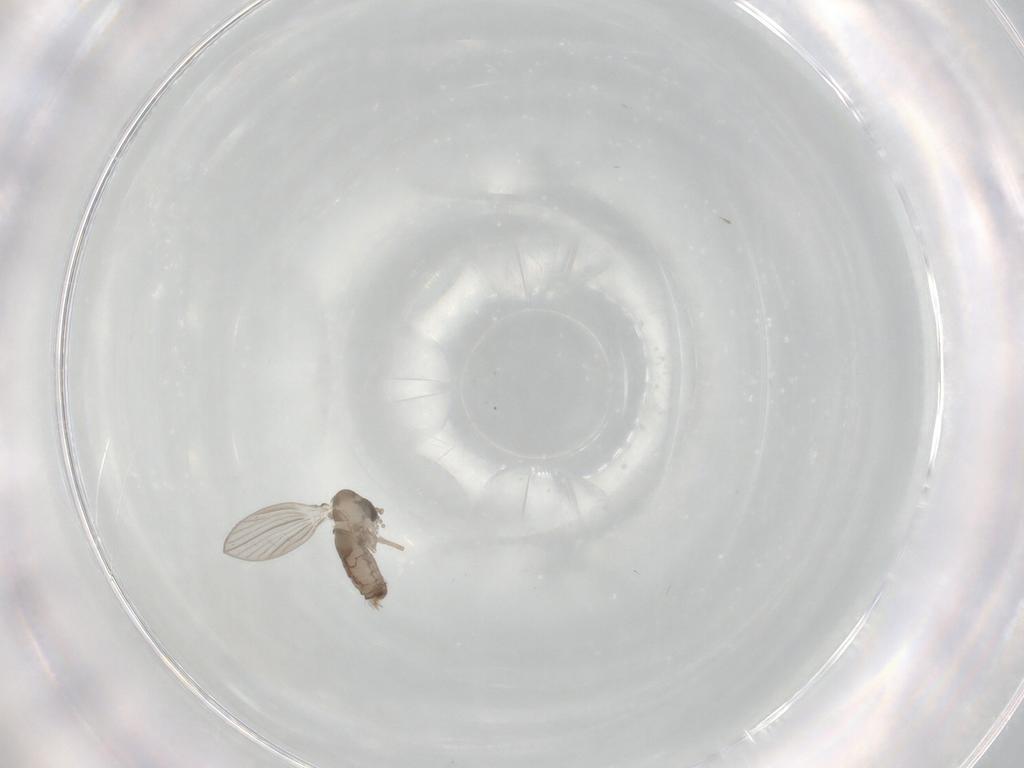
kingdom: Animalia
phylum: Arthropoda
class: Insecta
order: Diptera
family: Psychodidae
